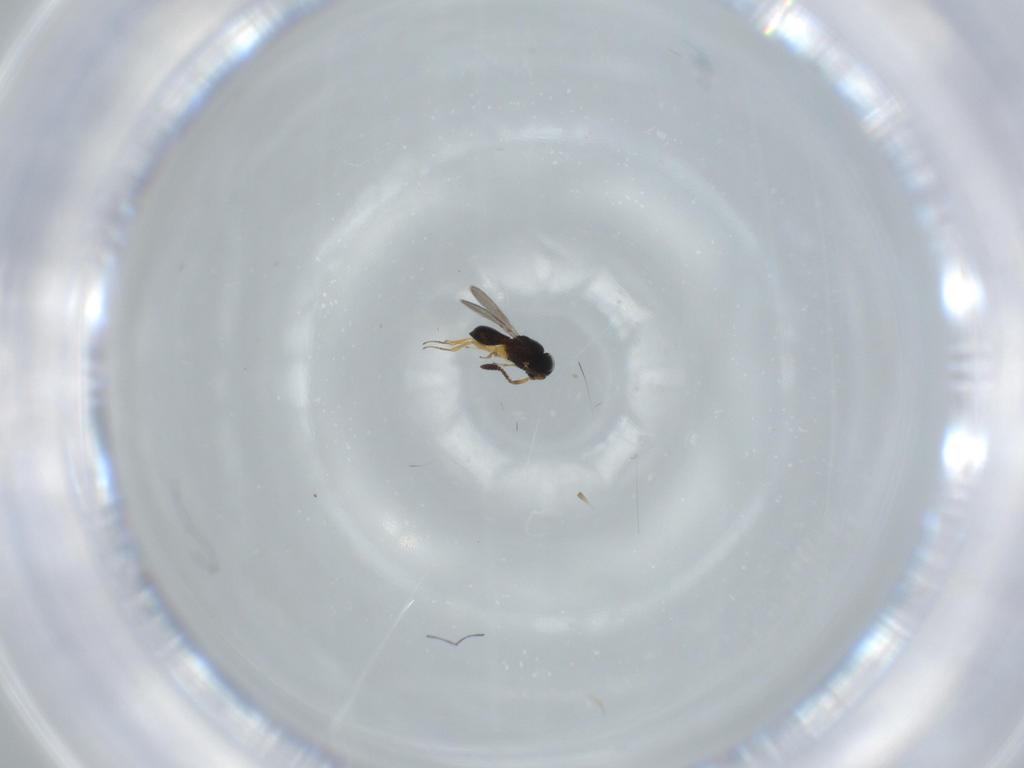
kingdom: Animalia
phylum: Arthropoda
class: Insecta
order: Hymenoptera
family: Scelionidae
